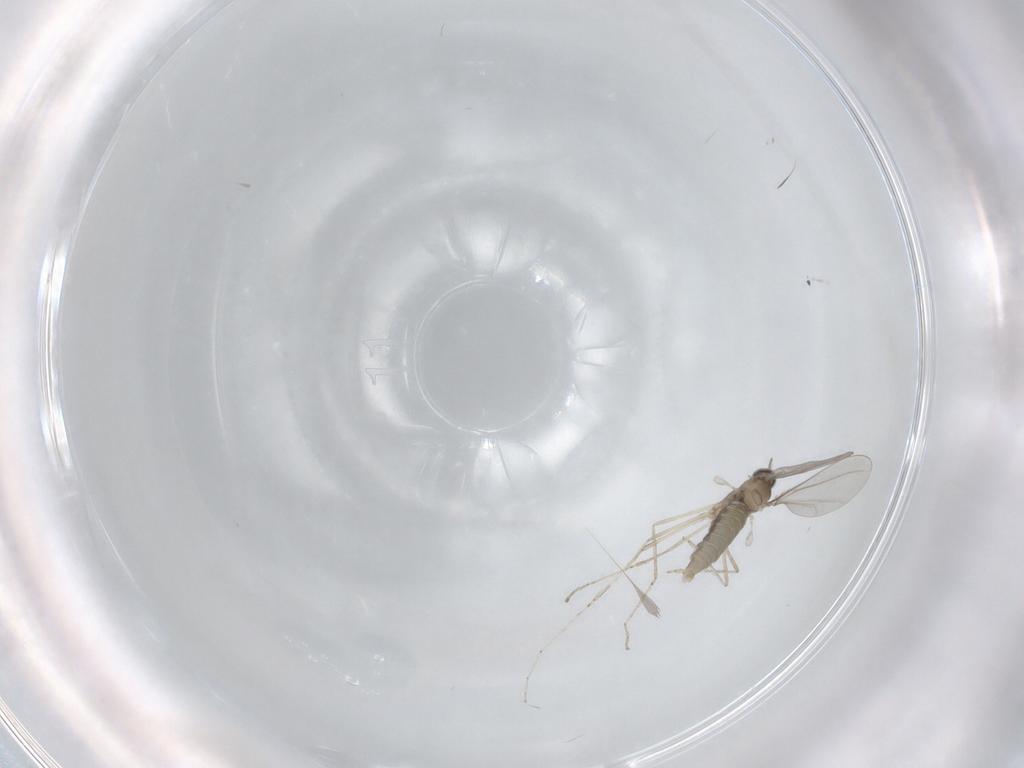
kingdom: Animalia
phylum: Arthropoda
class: Insecta
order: Diptera
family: Cecidomyiidae
